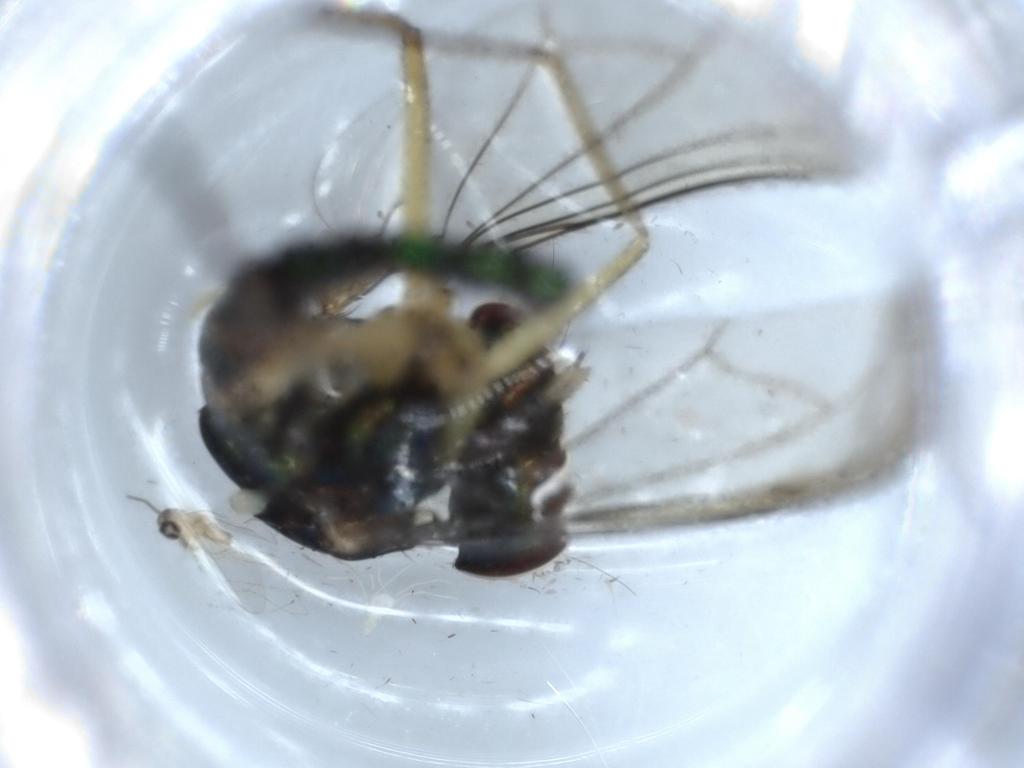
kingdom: Animalia
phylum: Arthropoda
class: Insecta
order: Diptera
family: Dolichopodidae
